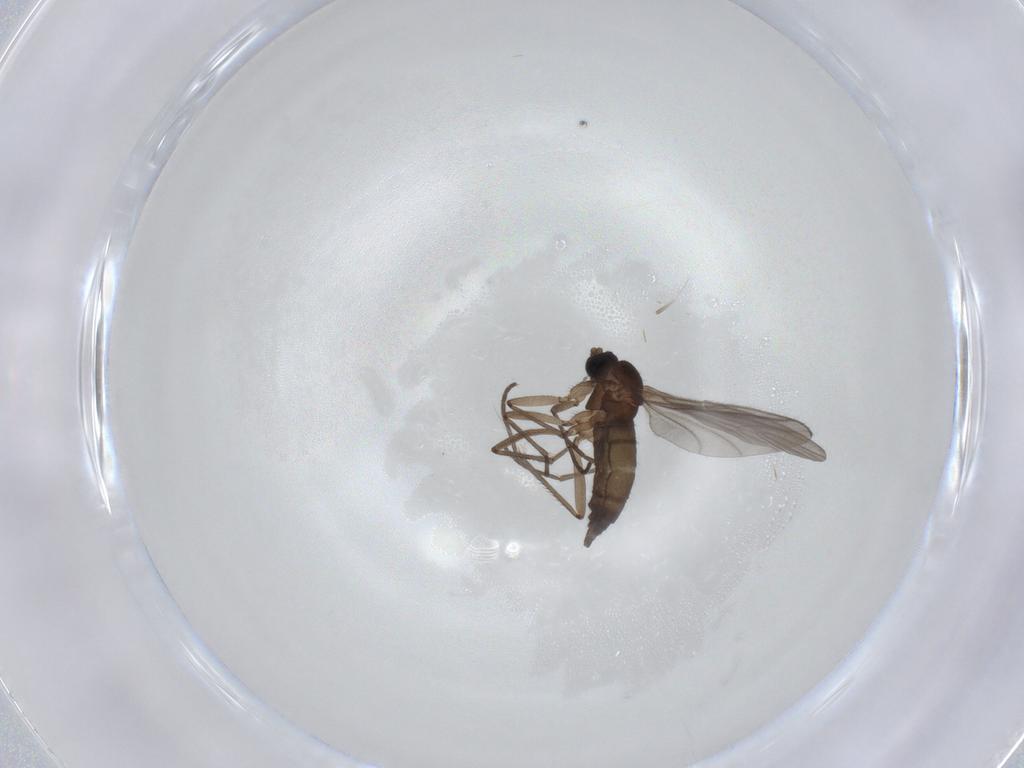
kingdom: Animalia
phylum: Arthropoda
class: Insecta
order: Diptera
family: Sciaridae
